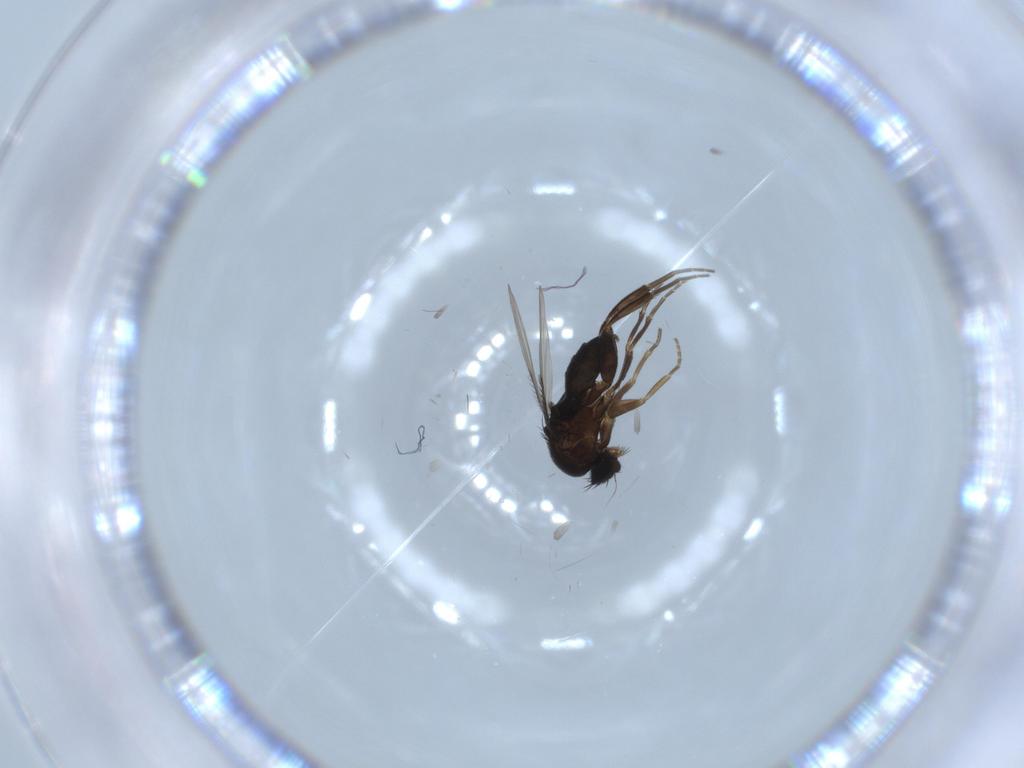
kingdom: Animalia
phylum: Arthropoda
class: Insecta
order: Diptera
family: Phoridae
